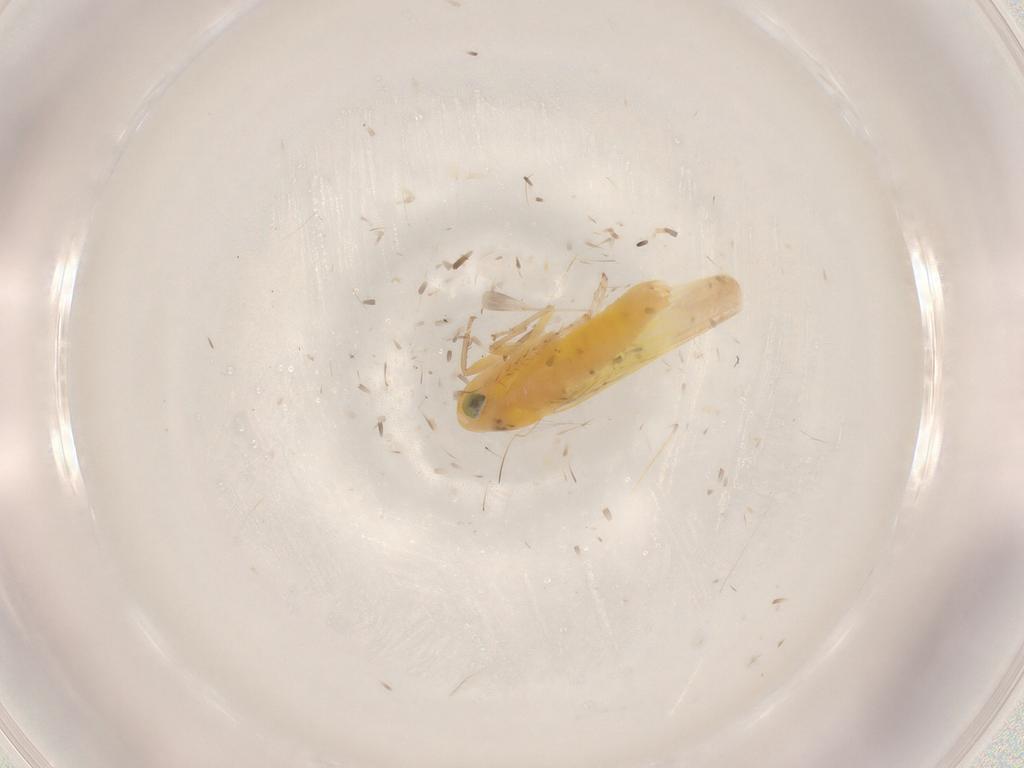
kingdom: Animalia
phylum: Arthropoda
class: Insecta
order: Hemiptera
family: Cicadellidae
